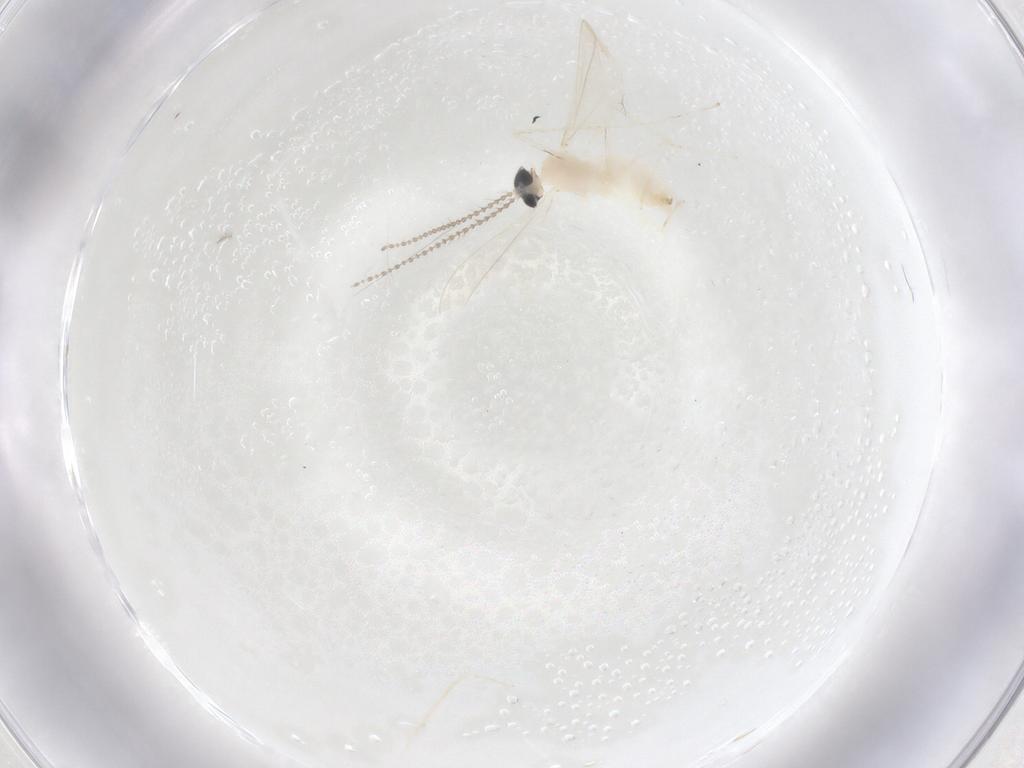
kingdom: Animalia
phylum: Arthropoda
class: Insecta
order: Diptera
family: Cecidomyiidae
